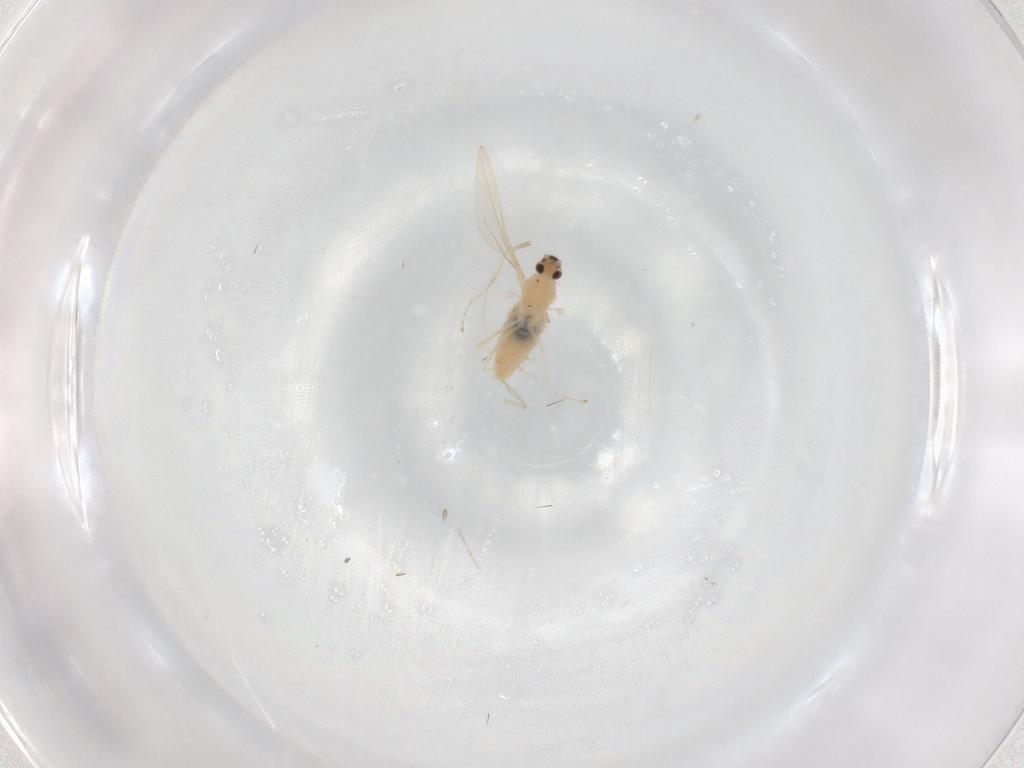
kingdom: Animalia
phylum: Arthropoda
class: Insecta
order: Diptera
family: Cecidomyiidae
